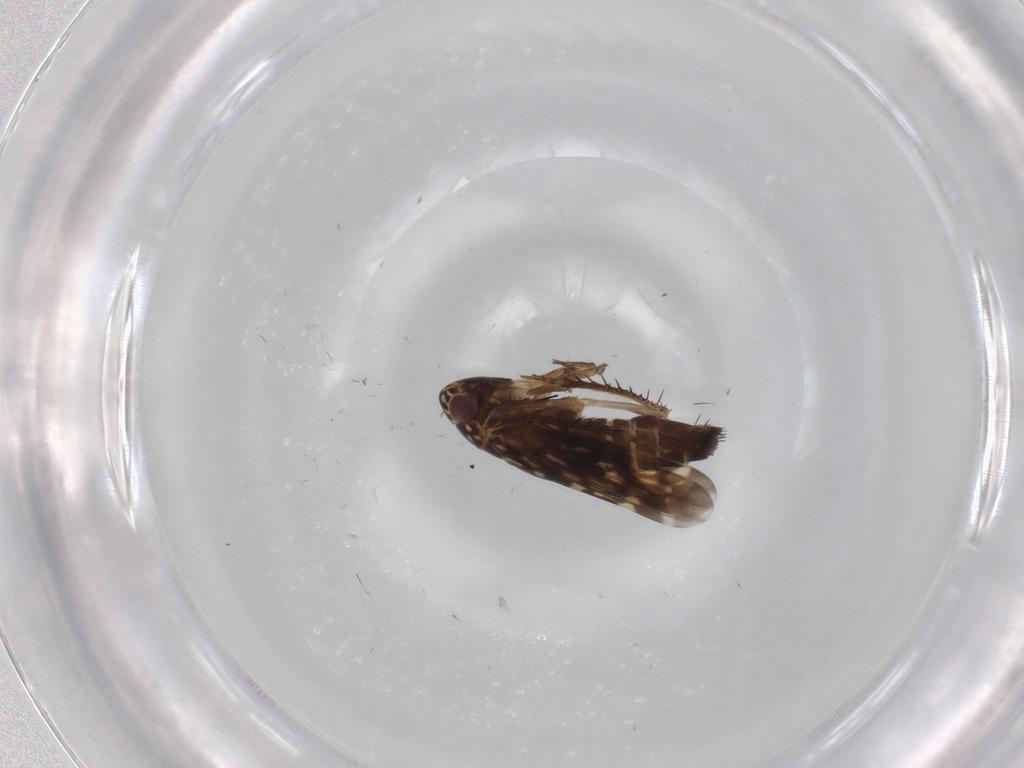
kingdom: Animalia
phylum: Arthropoda
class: Insecta
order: Hemiptera
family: Cicadellidae
